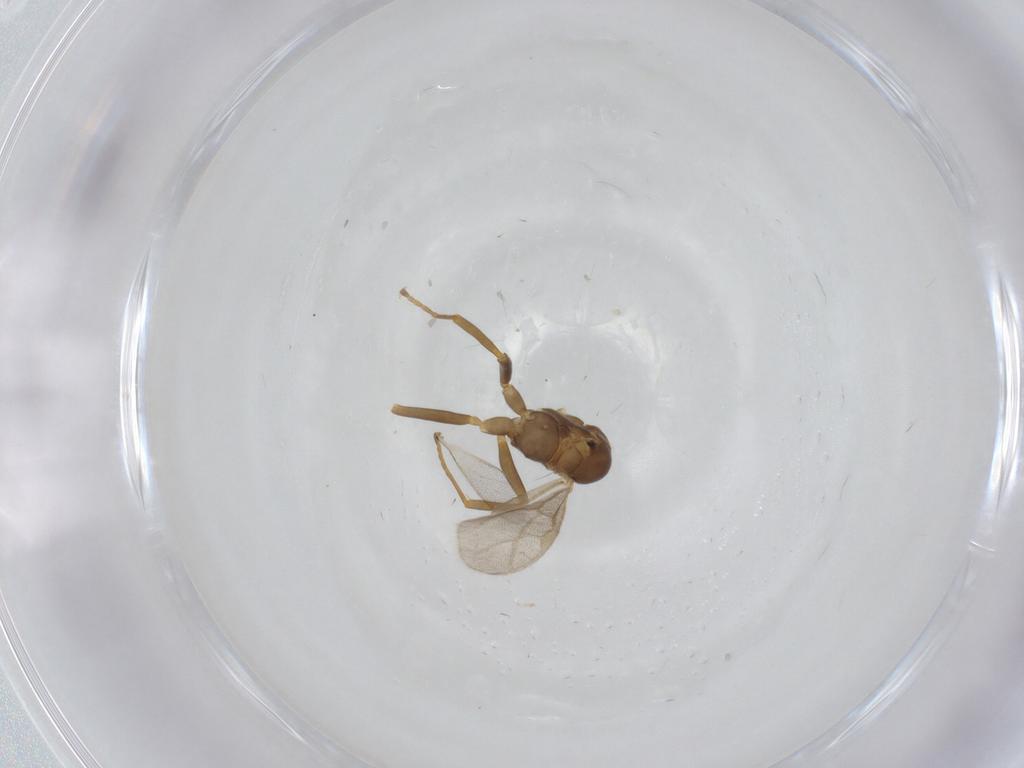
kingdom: Animalia
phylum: Arthropoda
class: Insecta
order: Hymenoptera
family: Formicidae
